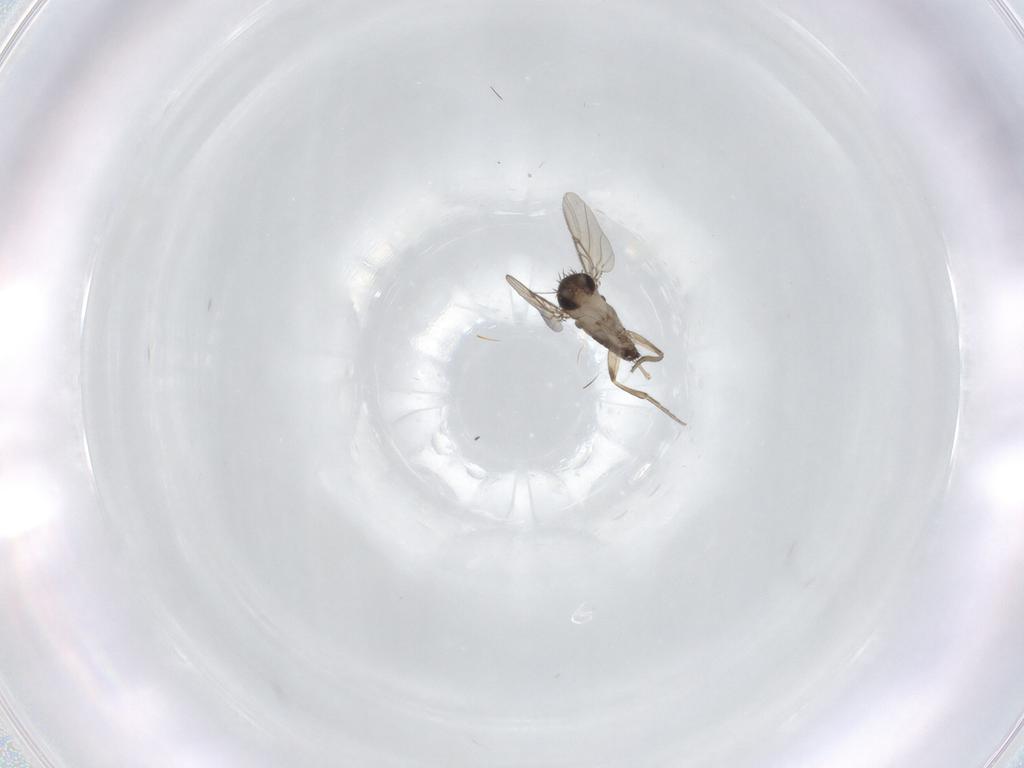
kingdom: Animalia
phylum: Arthropoda
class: Insecta
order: Diptera
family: Phoridae
